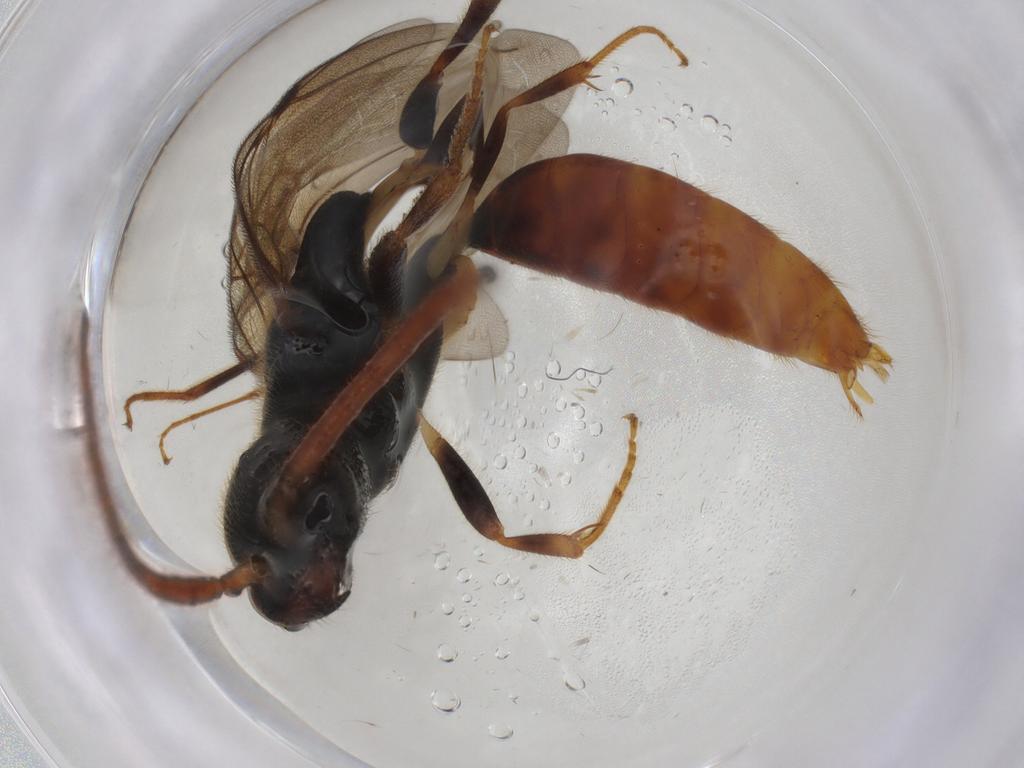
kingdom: Animalia
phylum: Arthropoda
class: Insecta
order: Hymenoptera
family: Bethylidae
